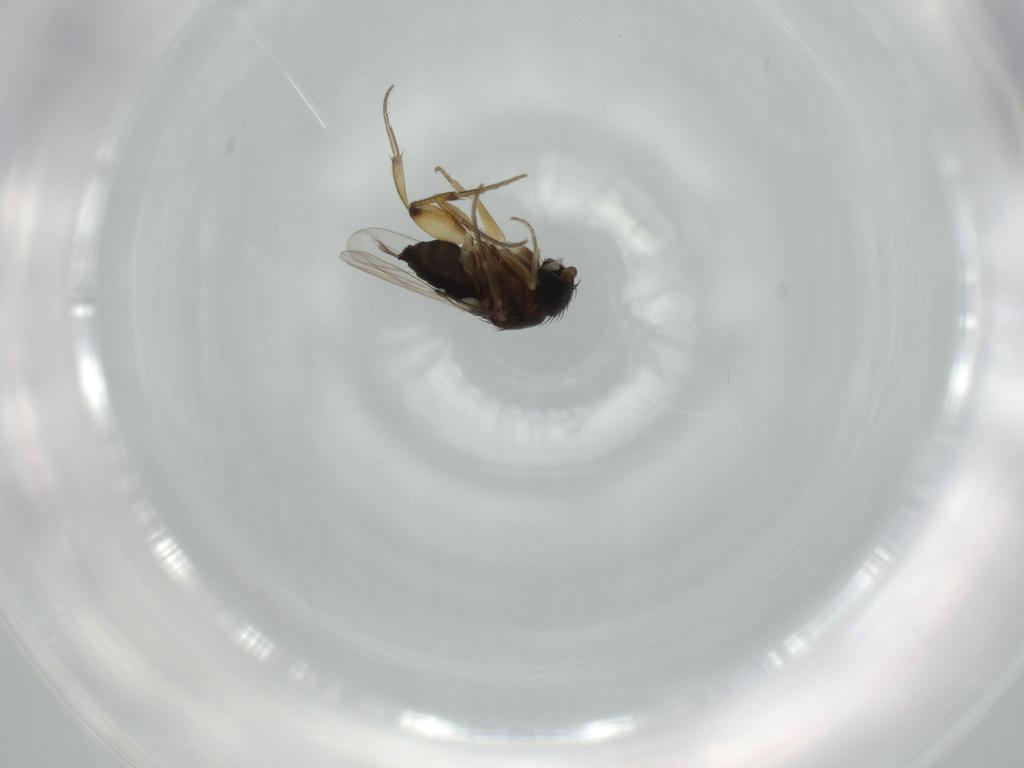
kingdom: Animalia
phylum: Arthropoda
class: Insecta
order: Diptera
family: Phoridae
